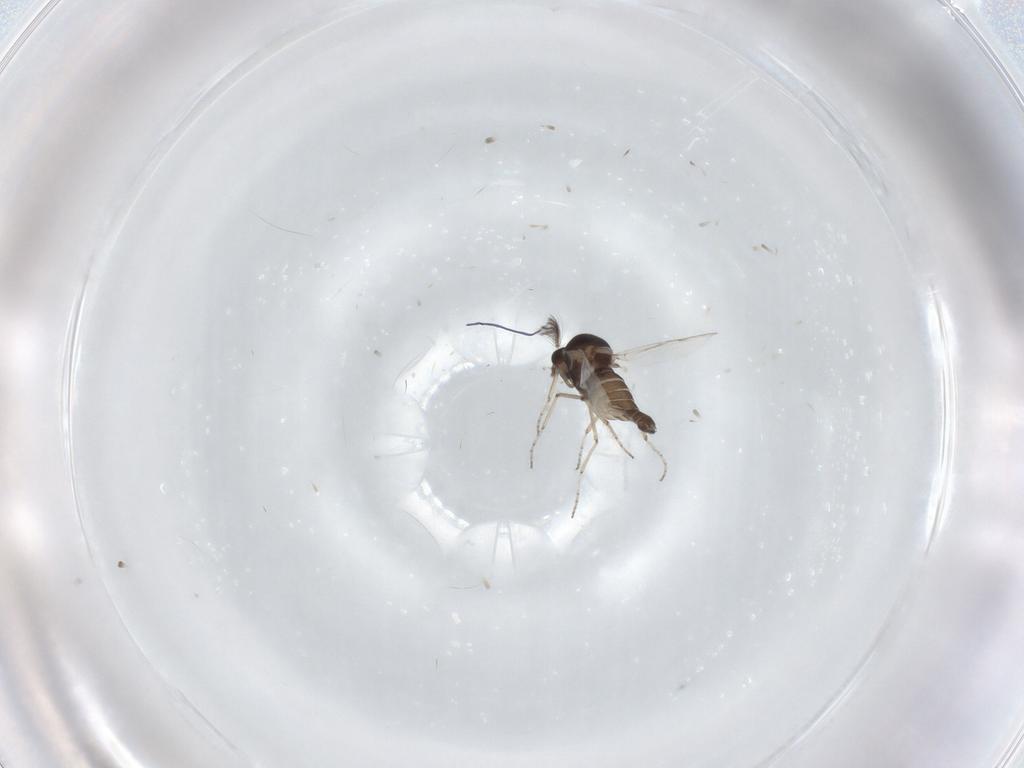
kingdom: Animalia
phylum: Arthropoda
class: Insecta
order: Diptera
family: Ceratopogonidae
